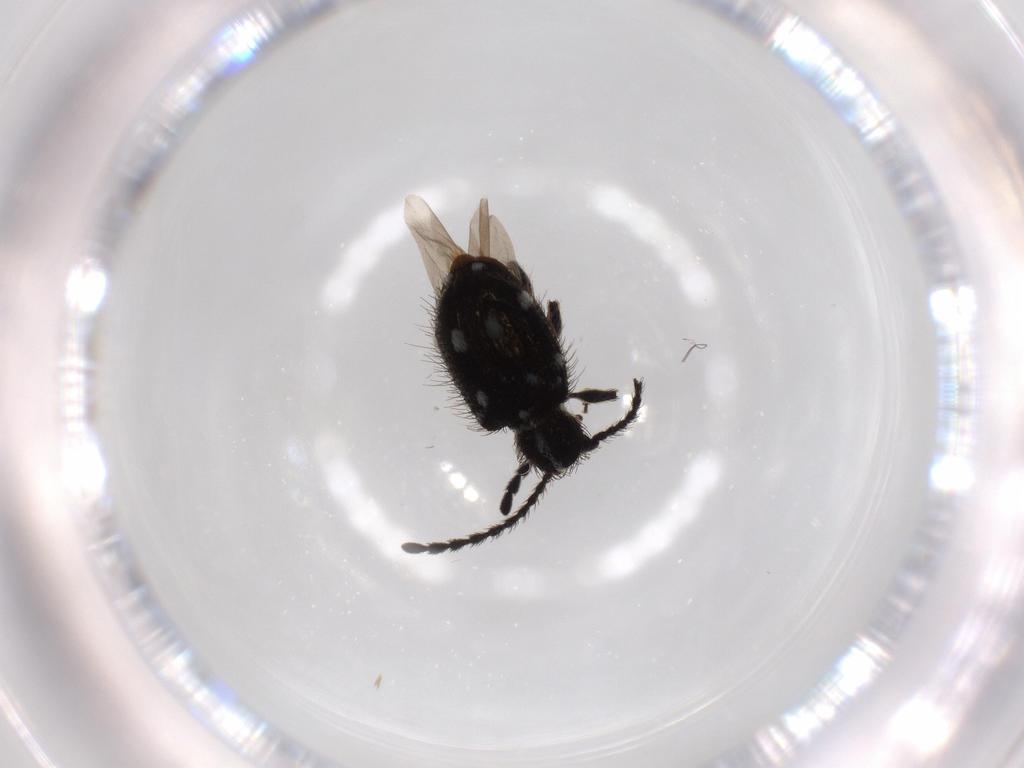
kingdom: Animalia
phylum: Arthropoda
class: Insecta
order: Coleoptera
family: Ptinidae
